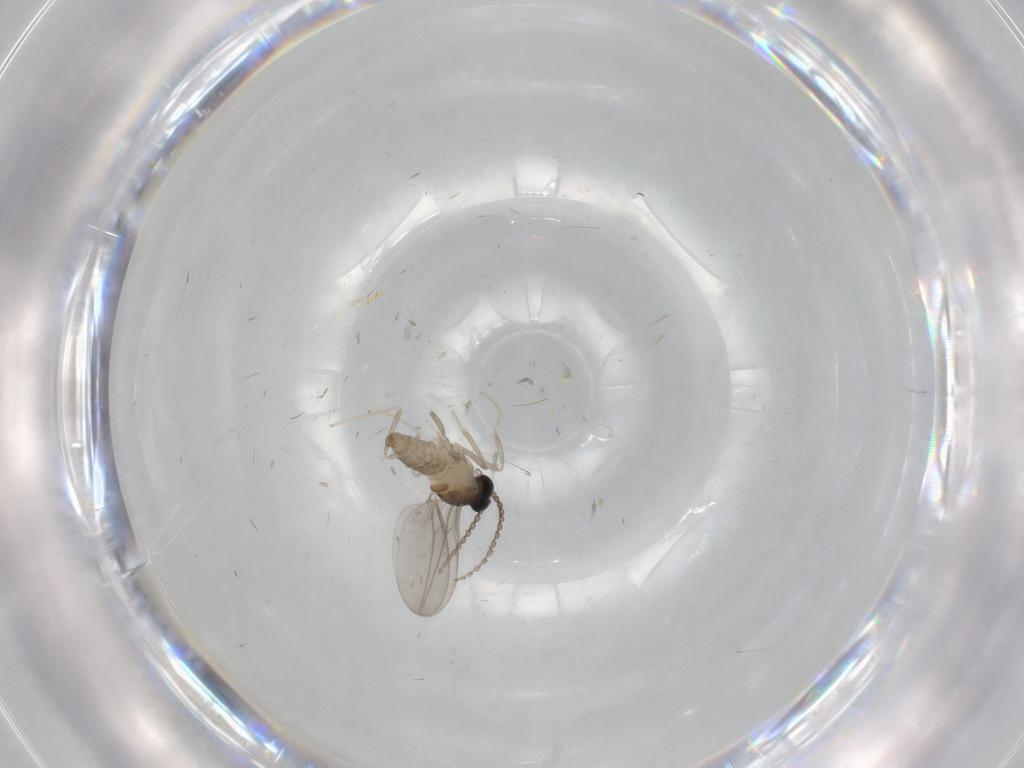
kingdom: Animalia
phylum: Arthropoda
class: Insecta
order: Diptera
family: Cecidomyiidae
